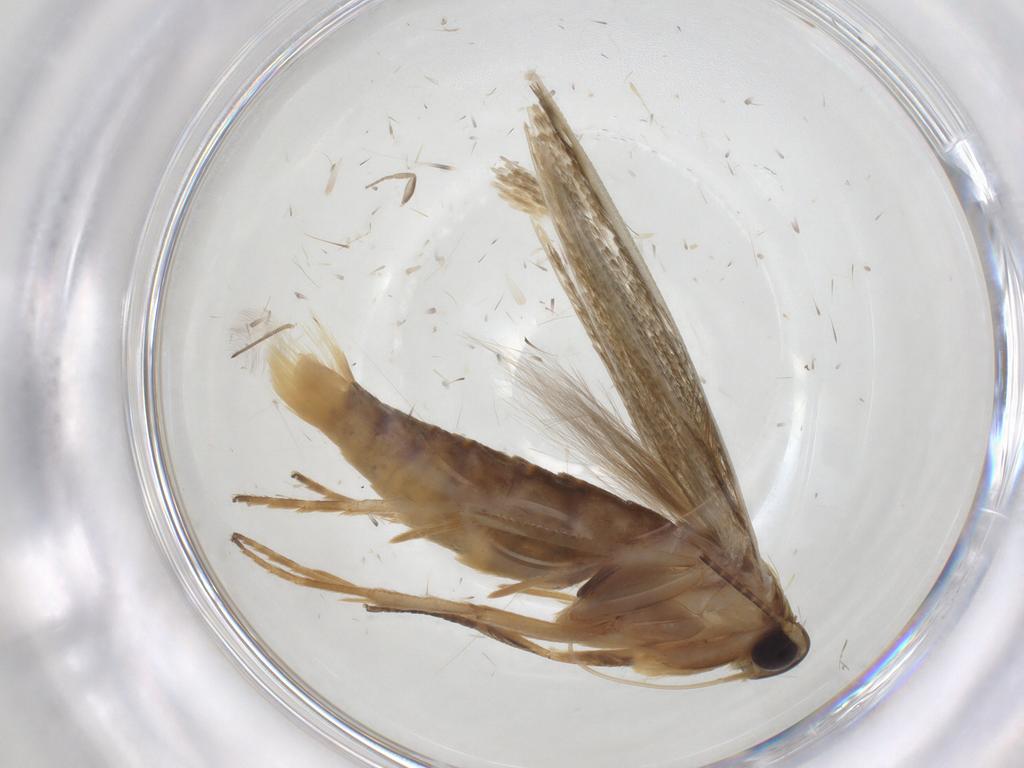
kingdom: Animalia
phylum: Arthropoda
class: Insecta
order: Lepidoptera
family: Stathmopodidae
